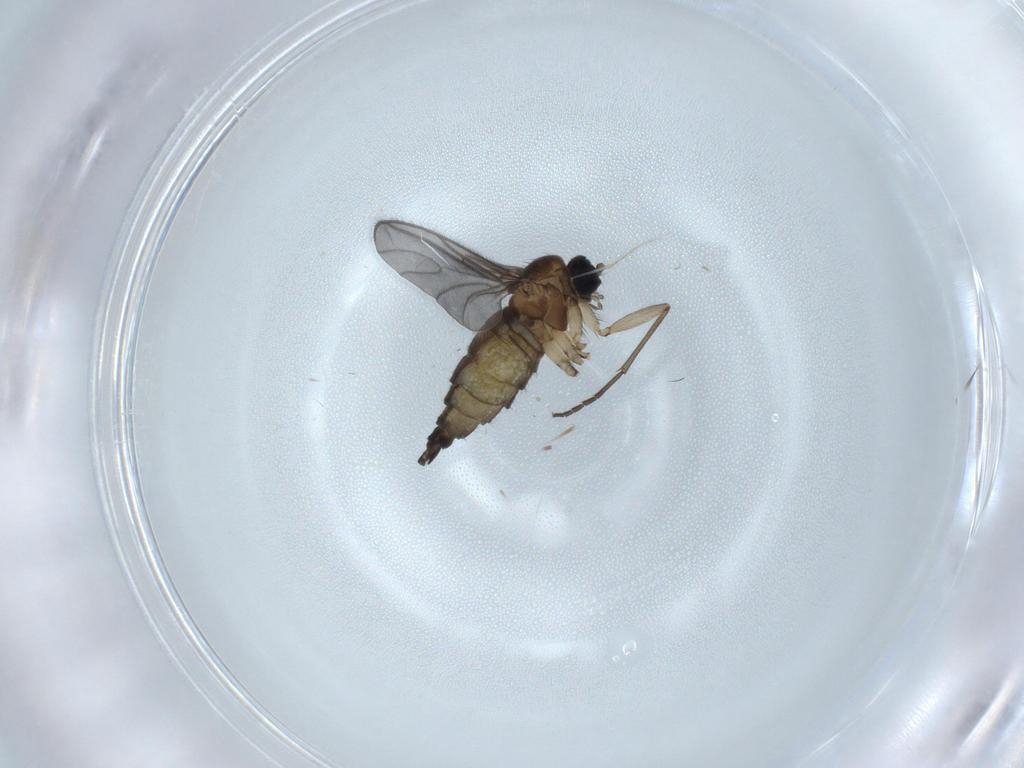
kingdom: Animalia
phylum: Arthropoda
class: Insecta
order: Diptera
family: Sciaridae
